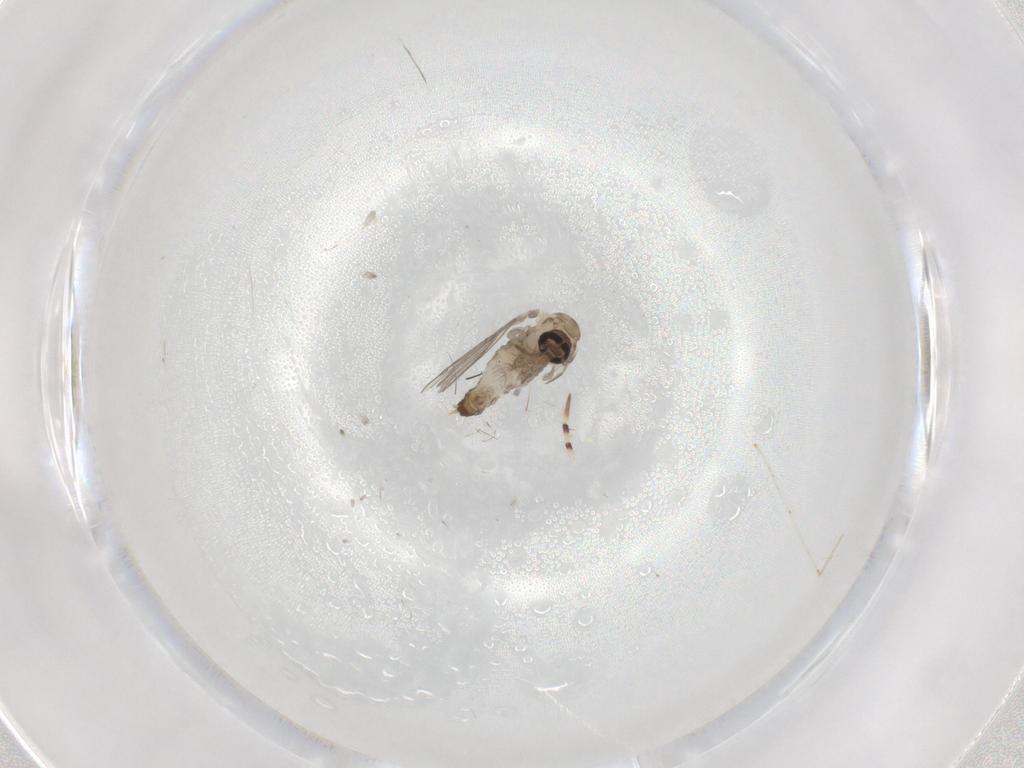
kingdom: Animalia
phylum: Arthropoda
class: Insecta
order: Diptera
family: Psychodidae
